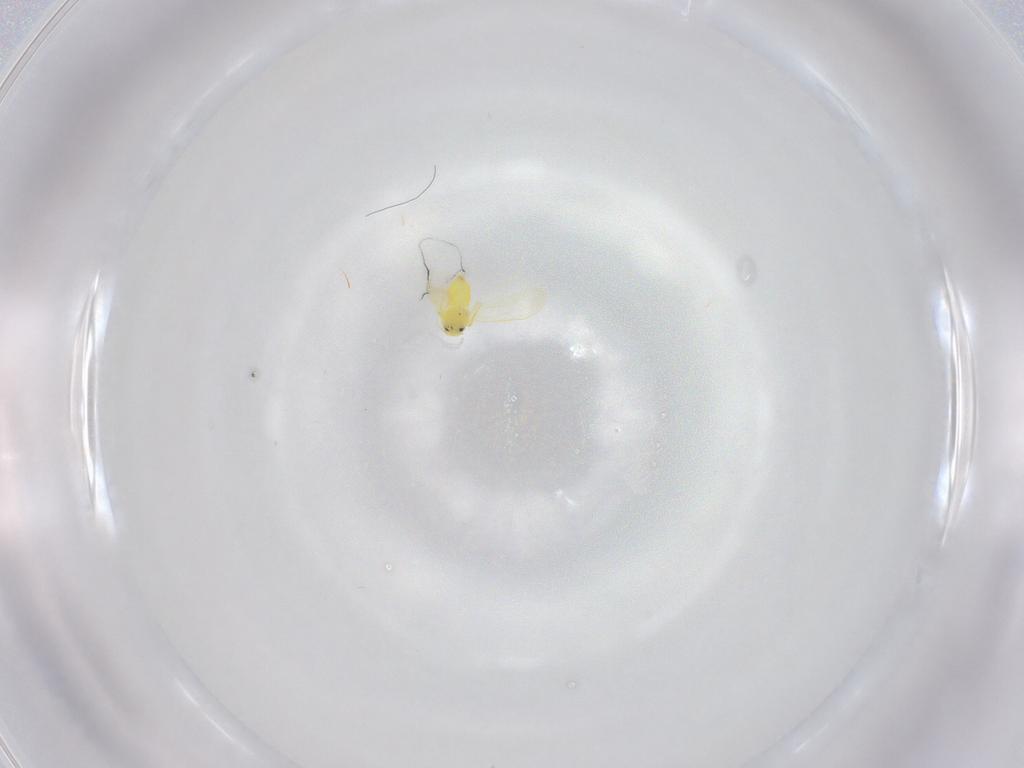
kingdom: Animalia
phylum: Arthropoda
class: Insecta
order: Hemiptera
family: Aleyrodidae
